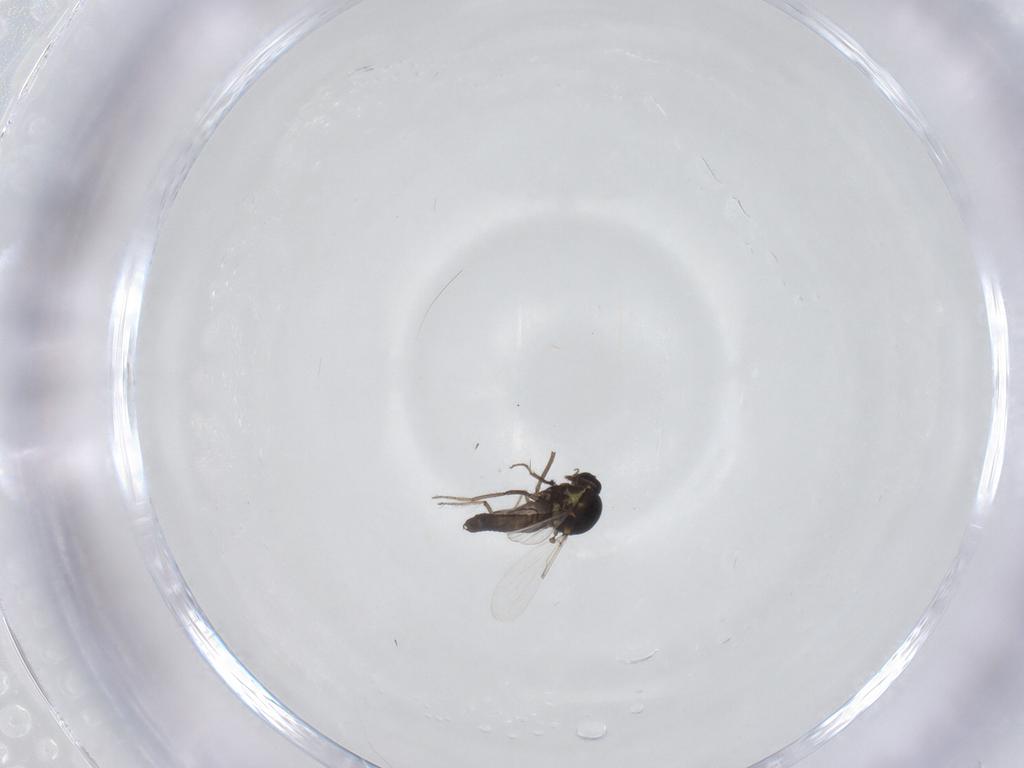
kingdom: Animalia
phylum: Arthropoda
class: Insecta
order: Diptera
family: Ceratopogonidae
